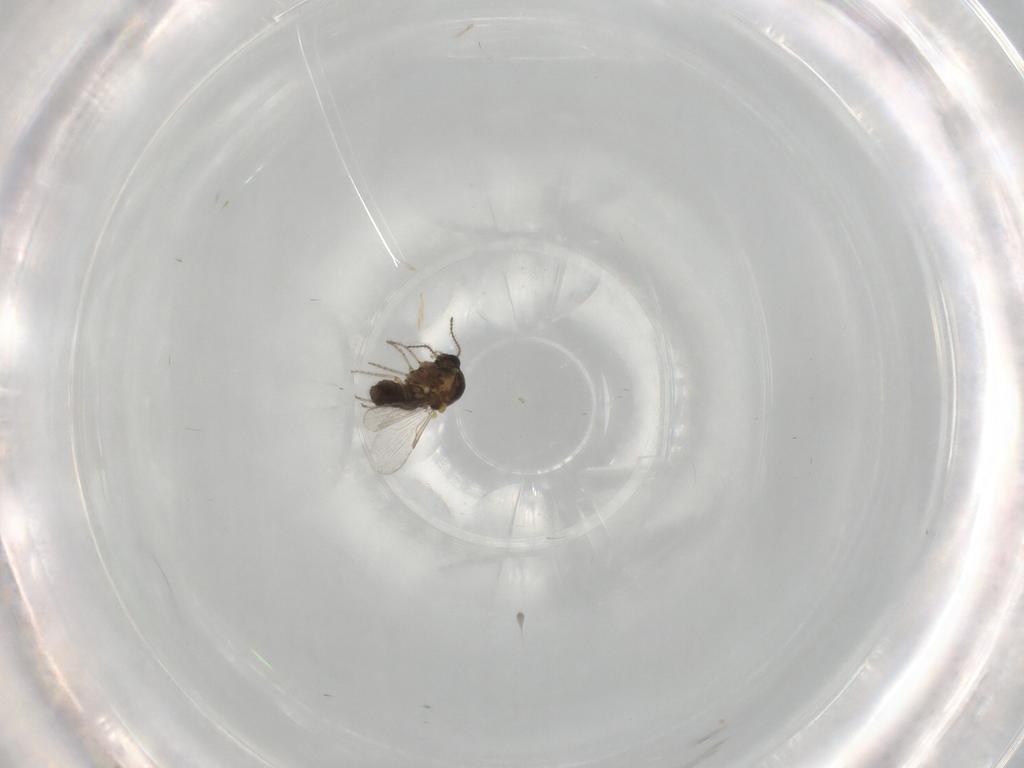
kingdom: Animalia
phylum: Arthropoda
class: Insecta
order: Diptera
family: Ceratopogonidae
